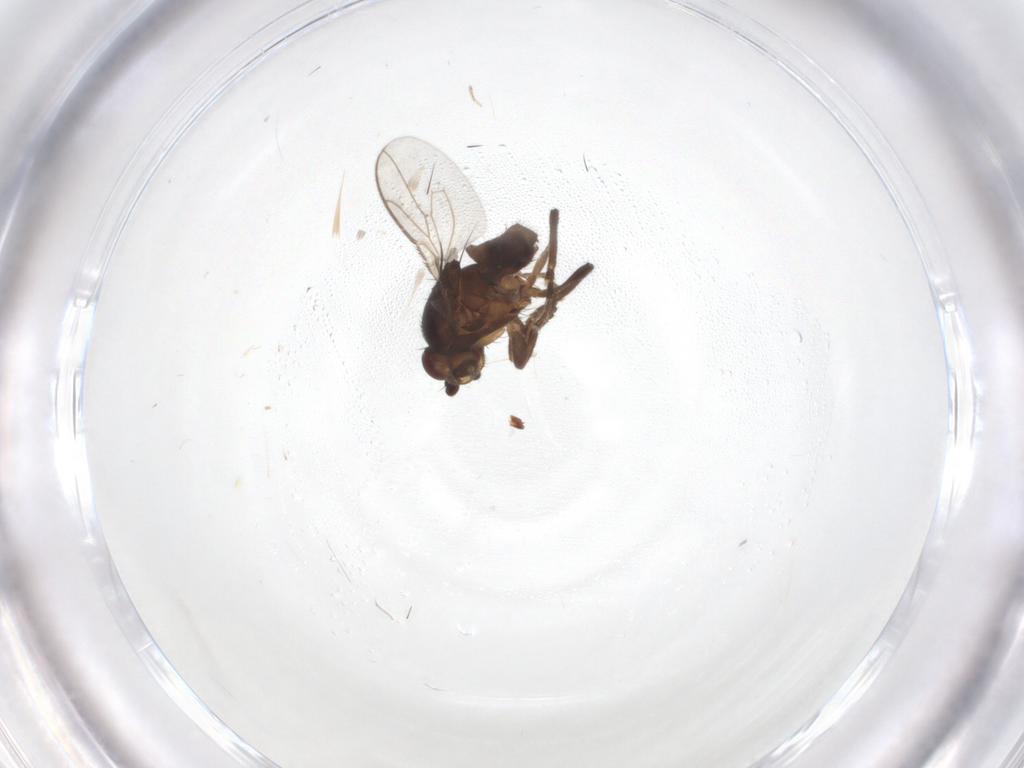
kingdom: Animalia
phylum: Arthropoda
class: Insecta
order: Diptera
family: Sphaeroceridae
